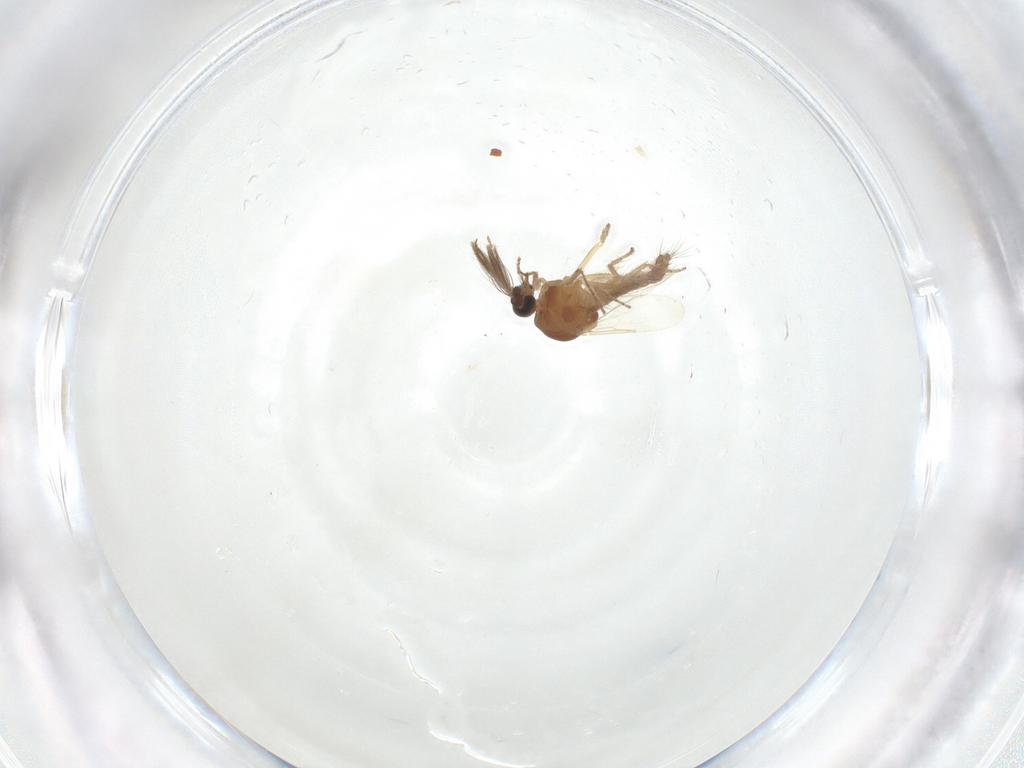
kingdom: Animalia
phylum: Arthropoda
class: Insecta
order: Diptera
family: Ceratopogonidae
